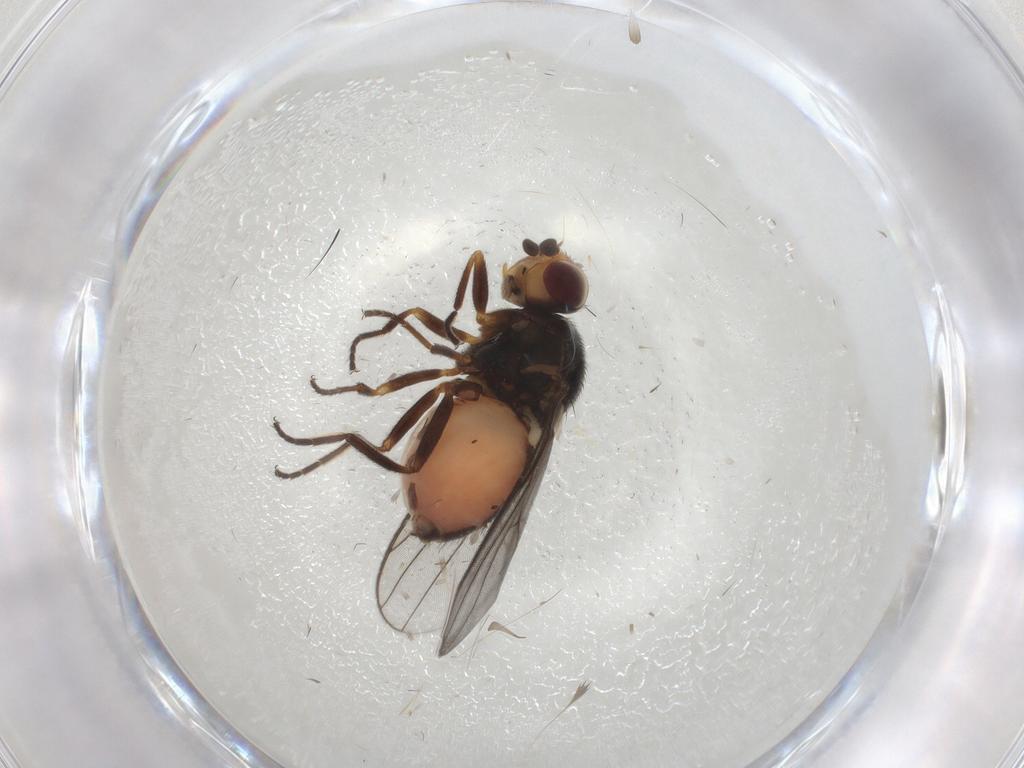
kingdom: Animalia
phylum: Arthropoda
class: Insecta
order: Diptera
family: Chloropidae
